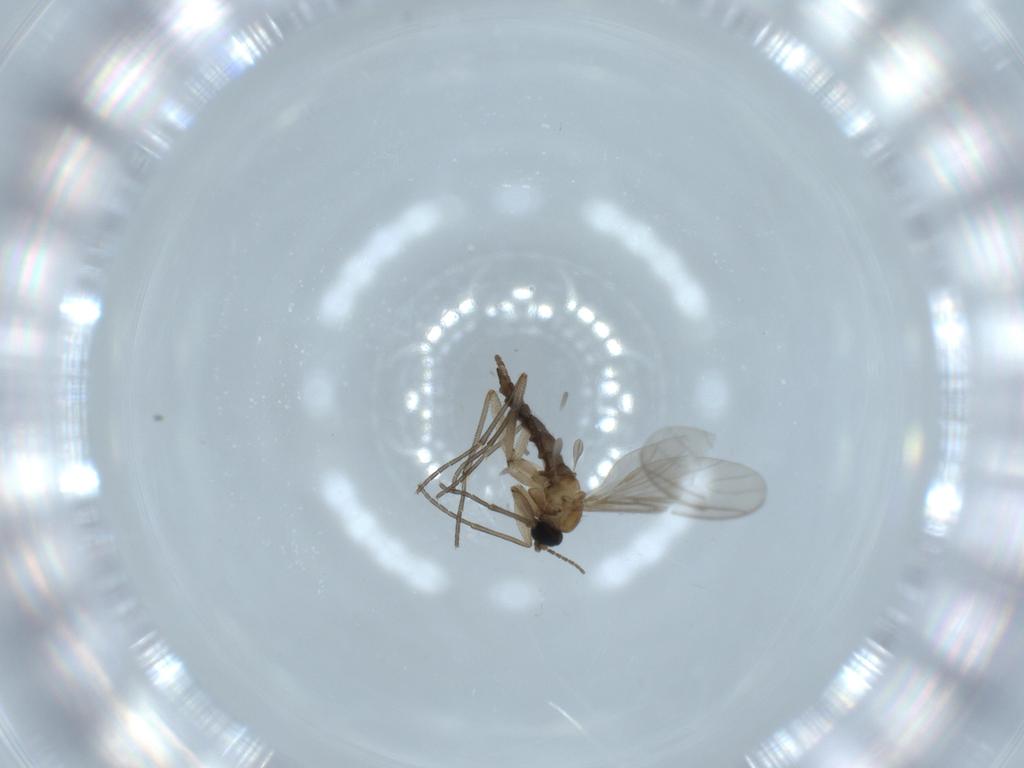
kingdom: Animalia
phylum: Arthropoda
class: Insecta
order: Diptera
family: Sciaridae
